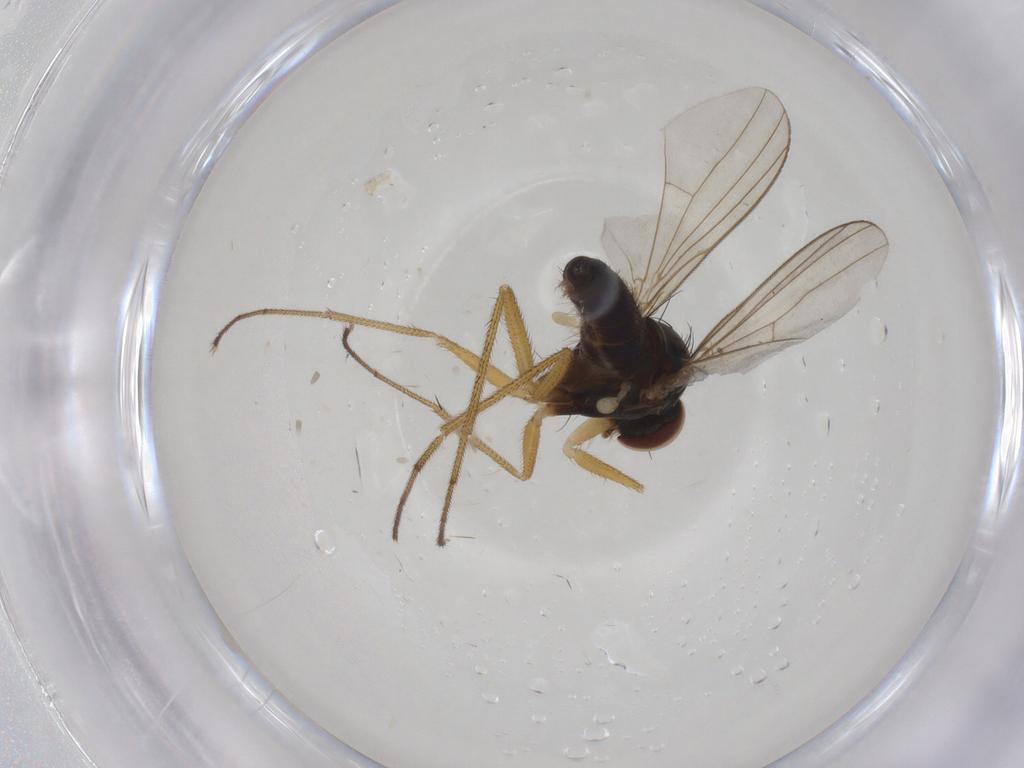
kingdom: Animalia
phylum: Arthropoda
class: Insecta
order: Diptera
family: Dolichopodidae
